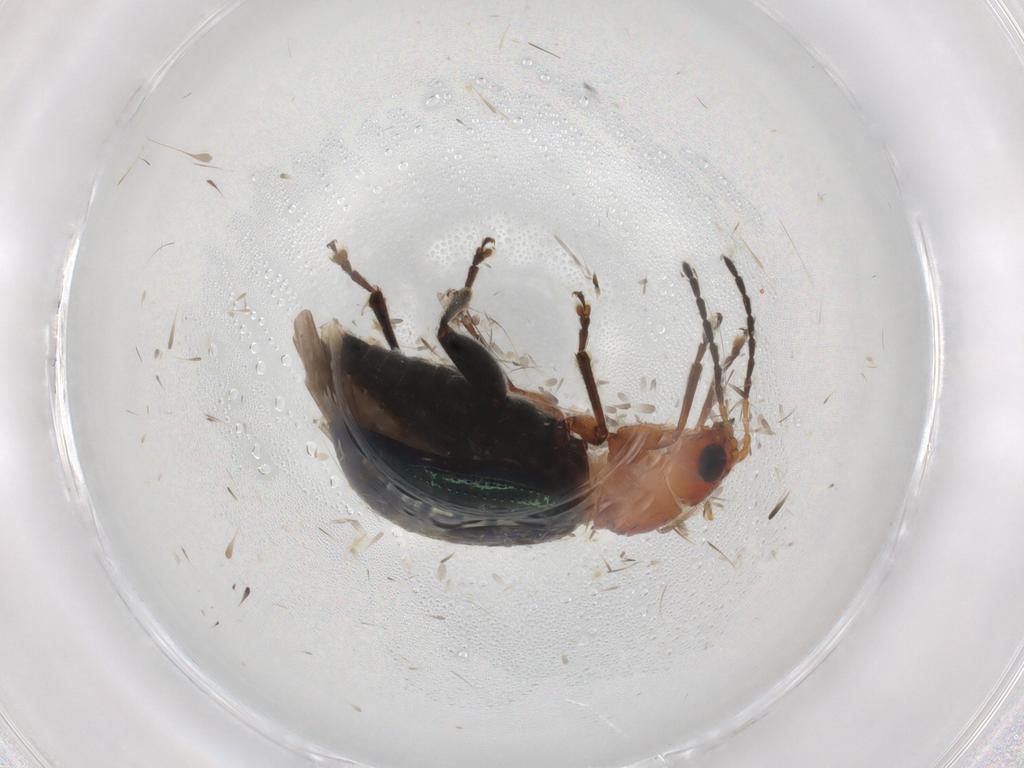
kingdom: Animalia
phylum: Arthropoda
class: Insecta
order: Coleoptera
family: Chrysomelidae
